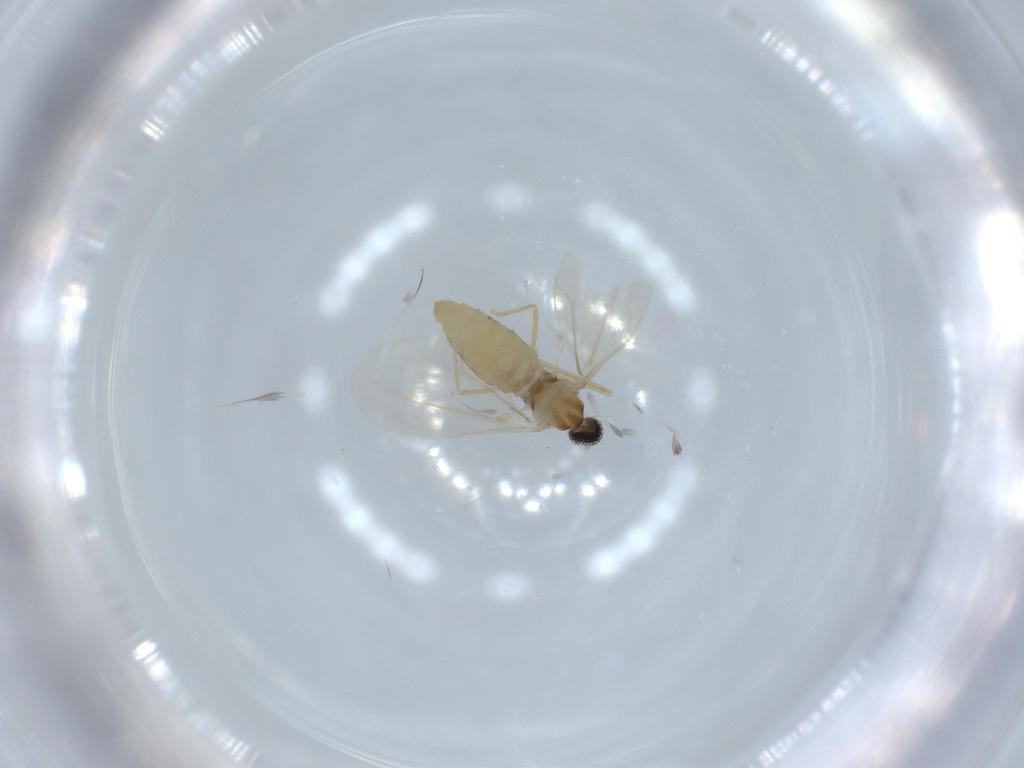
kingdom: Animalia
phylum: Arthropoda
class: Insecta
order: Diptera
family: Cecidomyiidae
